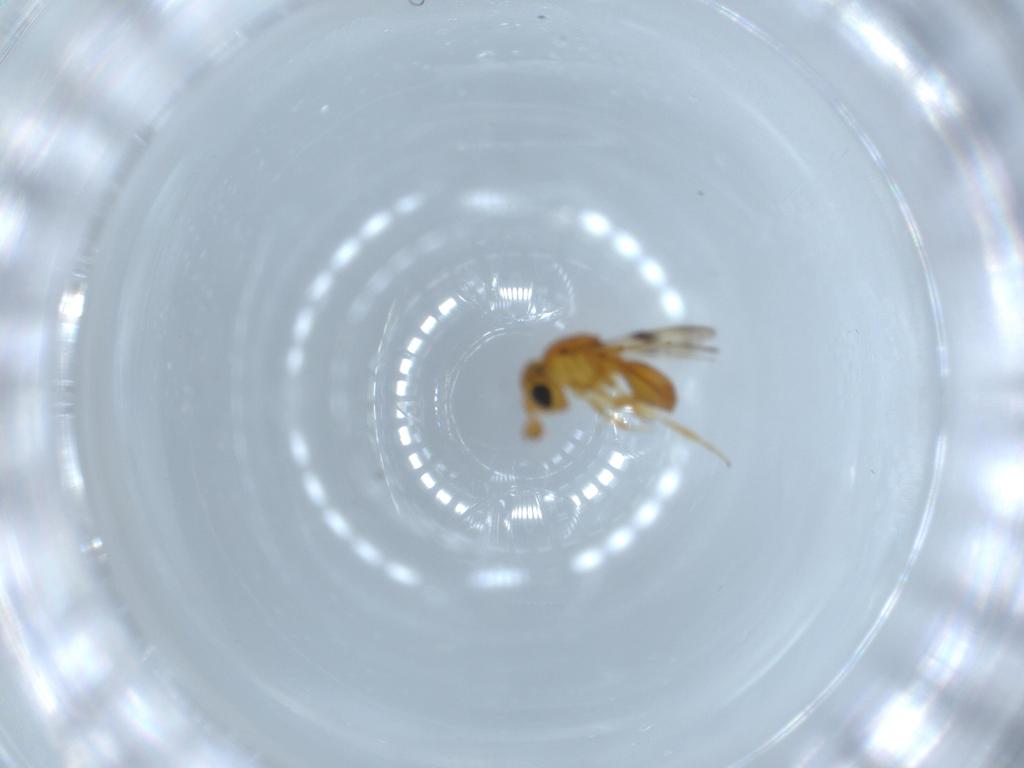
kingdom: Animalia
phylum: Arthropoda
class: Insecta
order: Hymenoptera
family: Scelionidae
